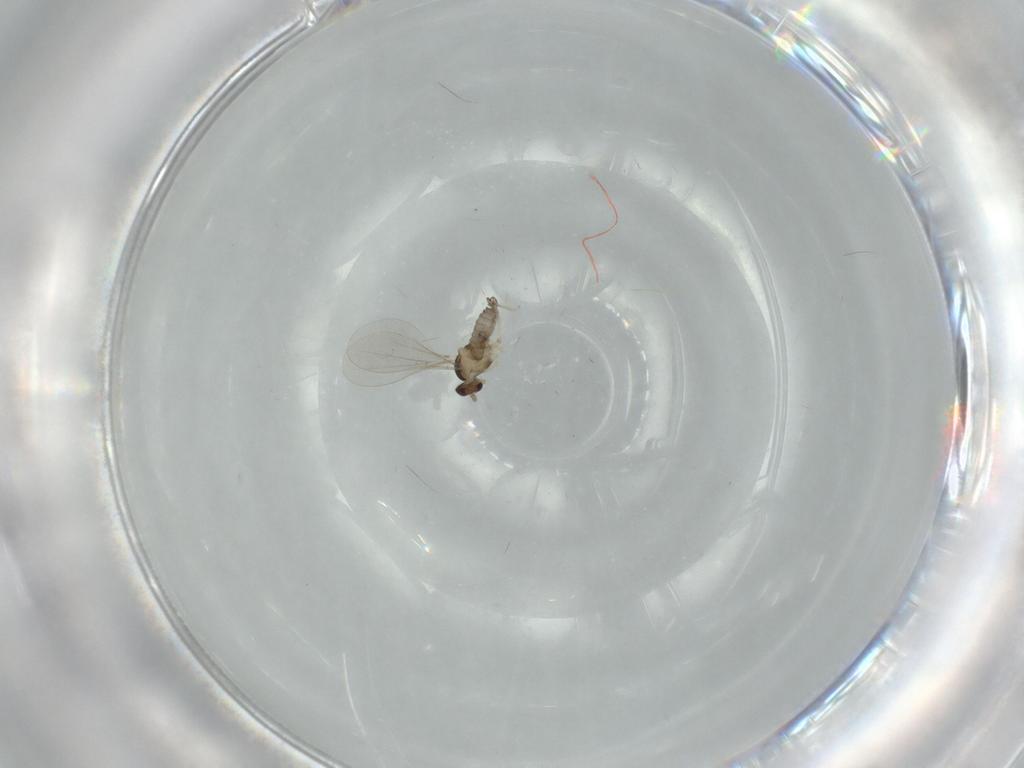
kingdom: Animalia
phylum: Arthropoda
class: Insecta
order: Diptera
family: Cecidomyiidae
